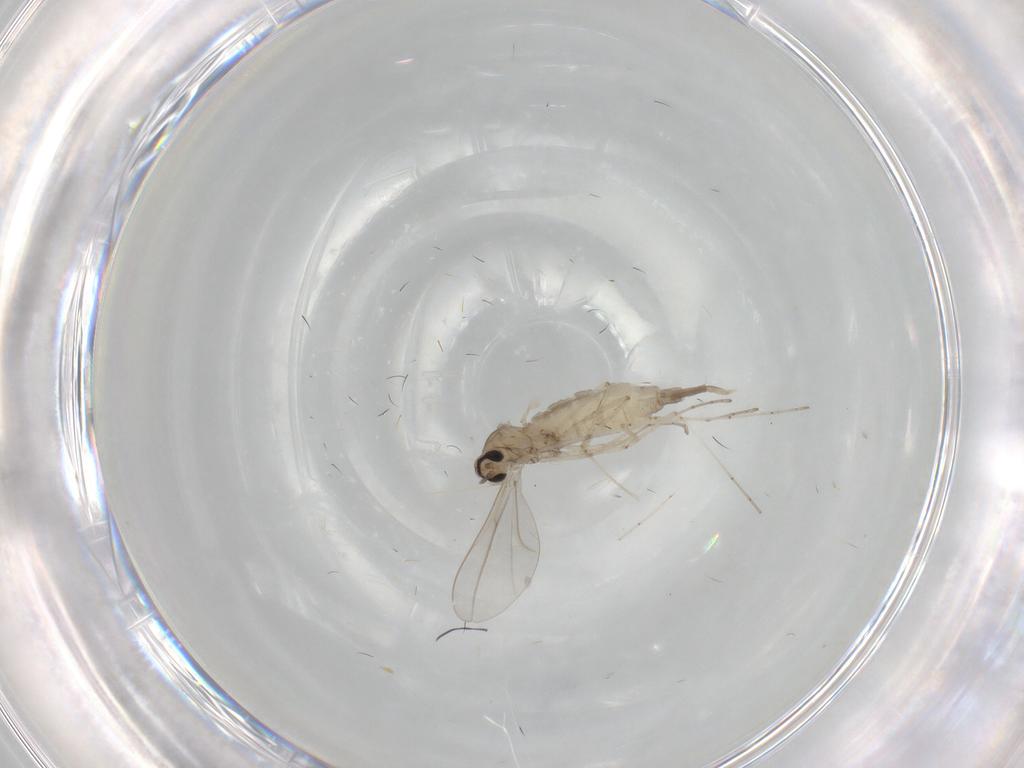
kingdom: Animalia
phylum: Arthropoda
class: Insecta
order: Diptera
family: Cecidomyiidae
